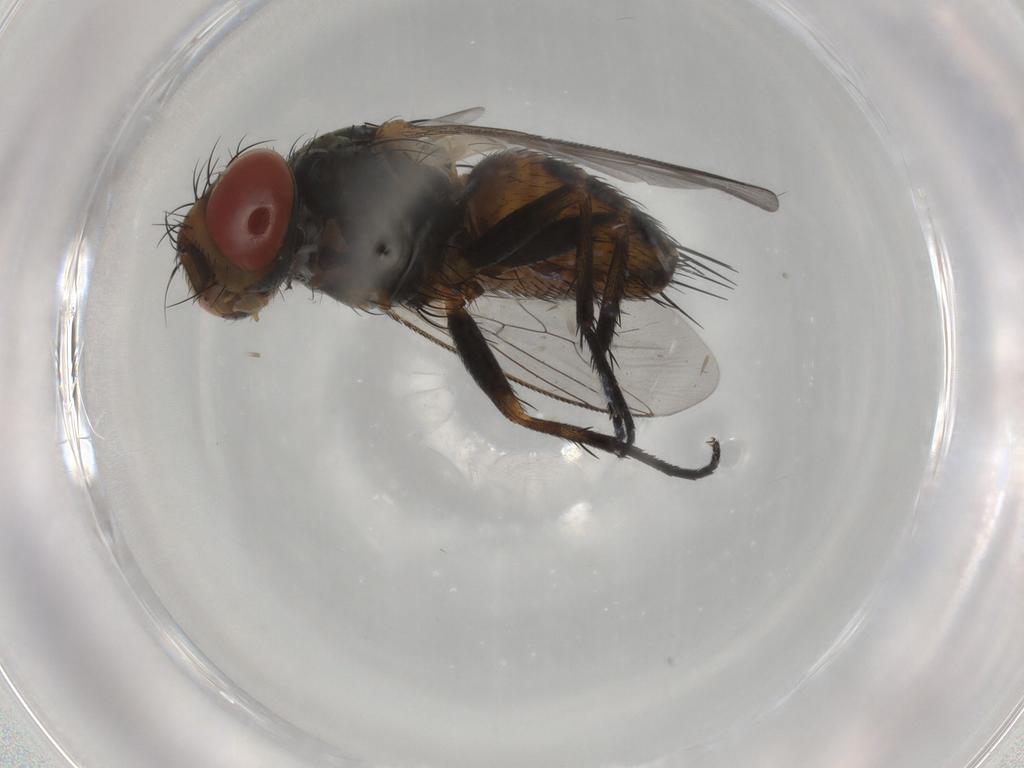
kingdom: Animalia
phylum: Arthropoda
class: Insecta
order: Diptera
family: Sarcophagidae
